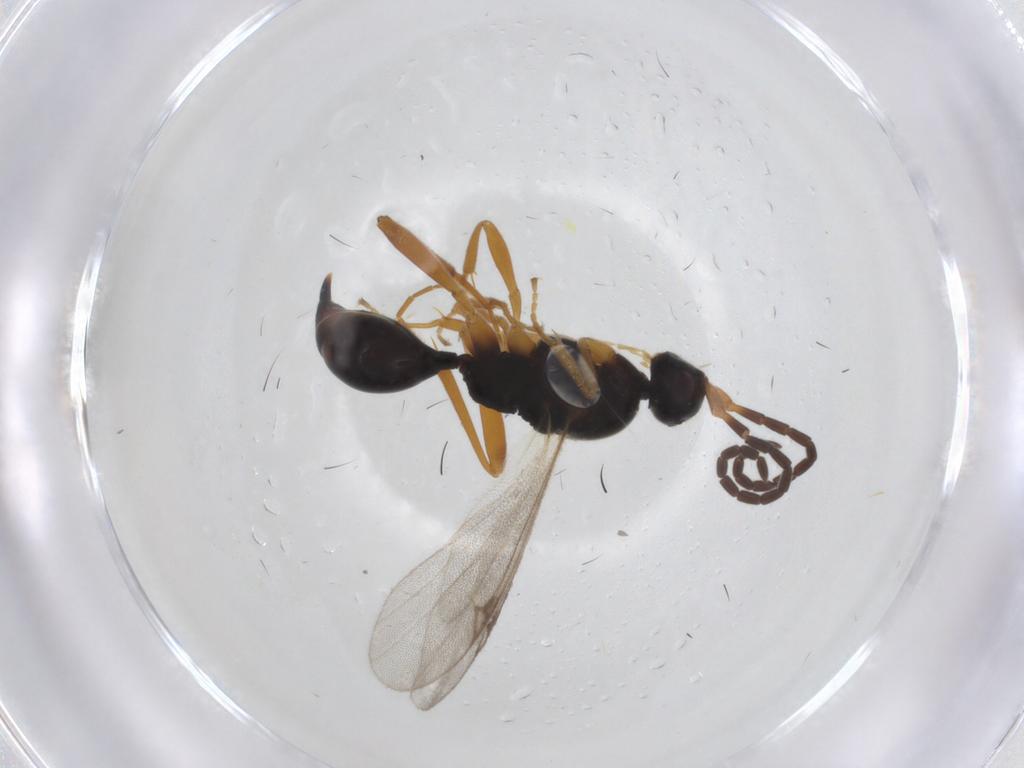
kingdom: Animalia
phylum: Arthropoda
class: Insecta
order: Hymenoptera
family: Proctotrupidae
